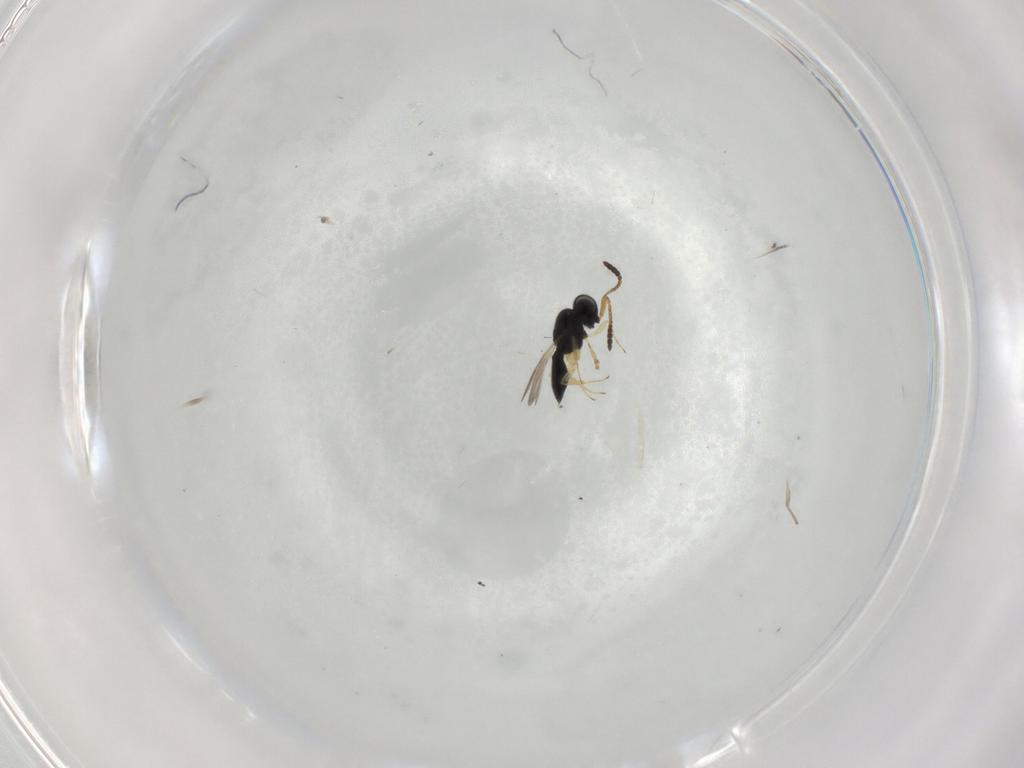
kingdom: Animalia
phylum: Arthropoda
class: Insecta
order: Hymenoptera
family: Scelionidae
